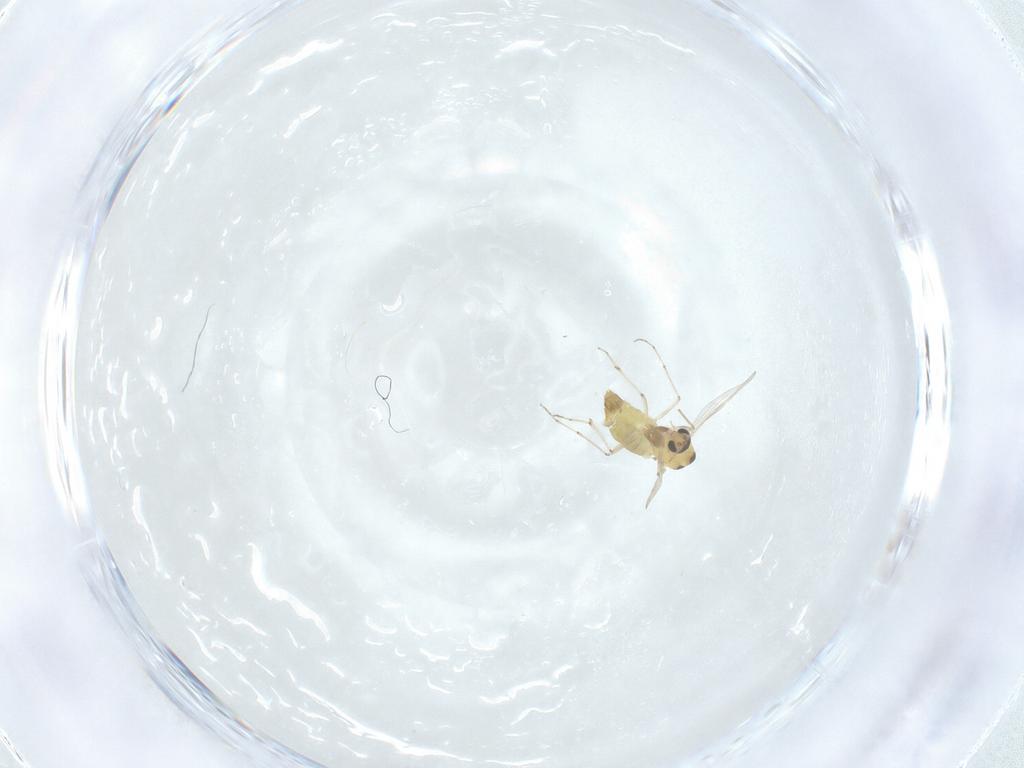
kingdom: Animalia
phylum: Arthropoda
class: Insecta
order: Diptera
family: Chironomidae
